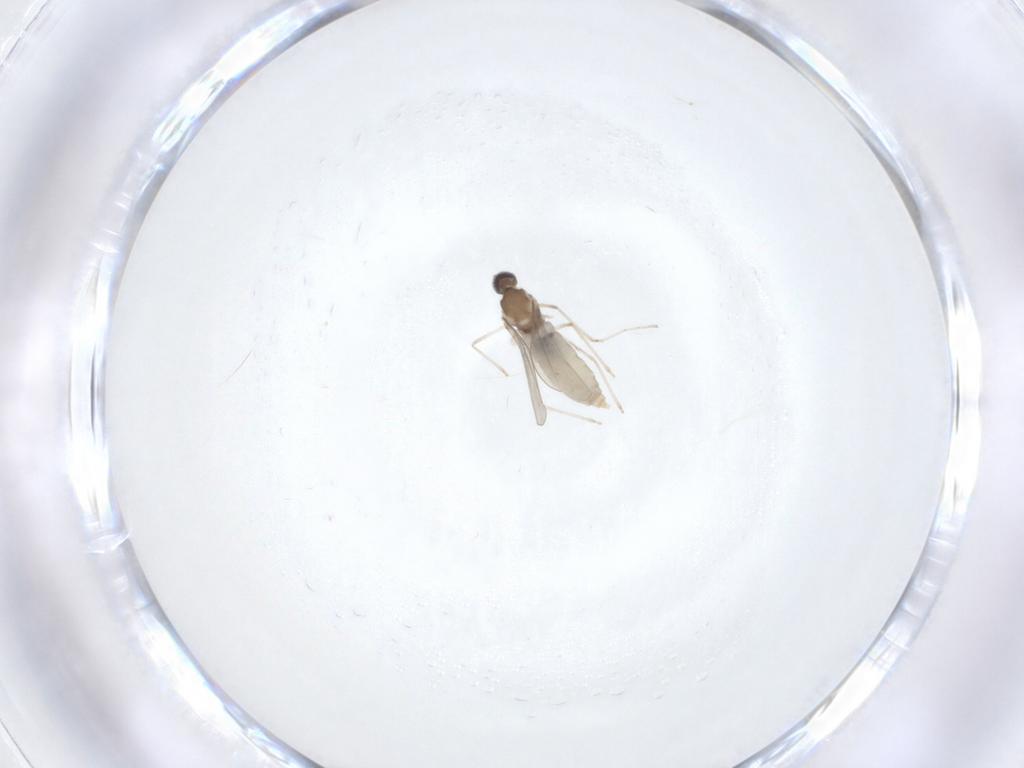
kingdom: Animalia
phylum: Arthropoda
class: Insecta
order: Diptera
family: Cecidomyiidae
